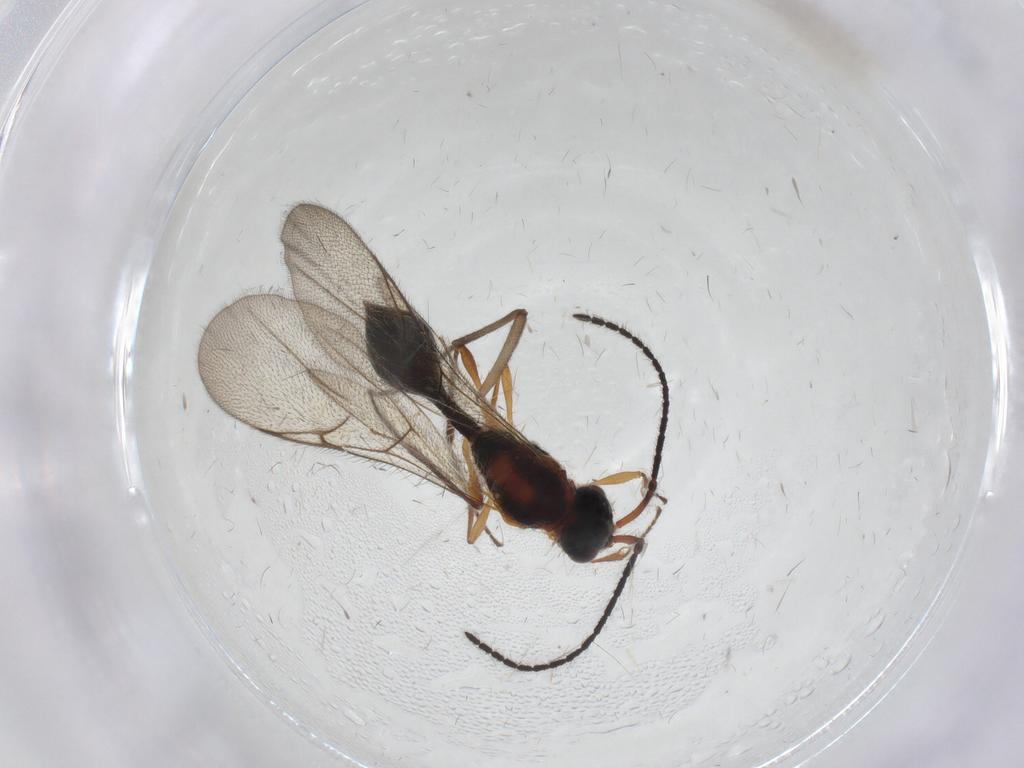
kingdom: Animalia
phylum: Arthropoda
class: Insecta
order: Hymenoptera
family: Diapriidae
